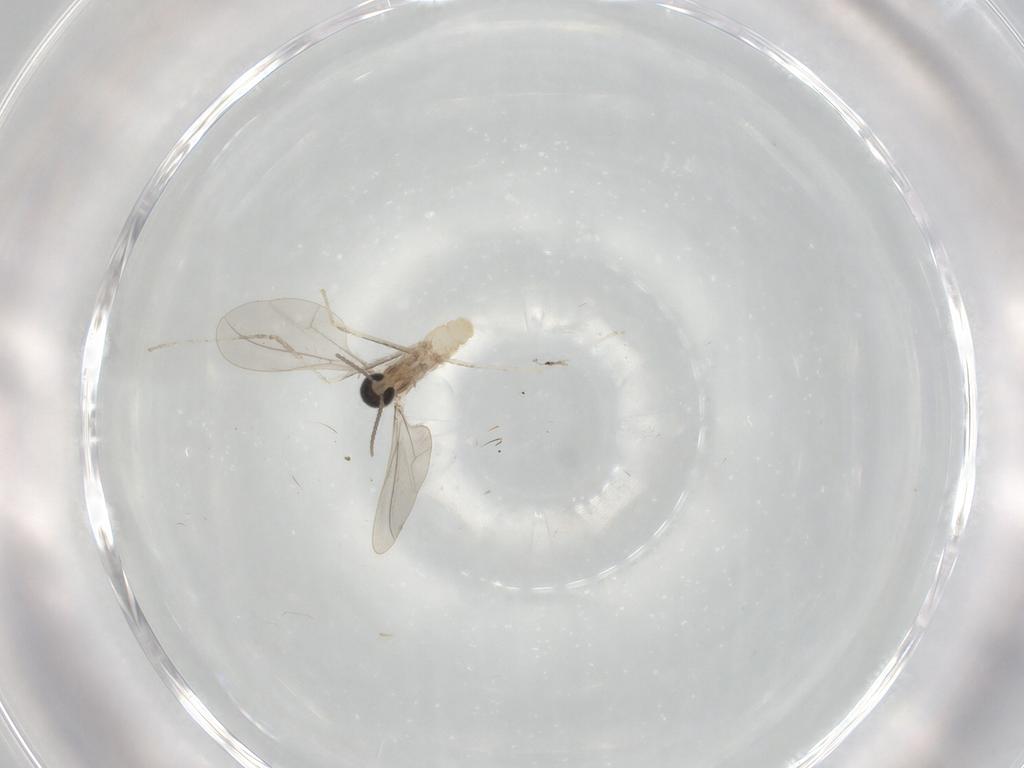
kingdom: Animalia
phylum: Arthropoda
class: Insecta
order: Diptera
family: Cecidomyiidae
